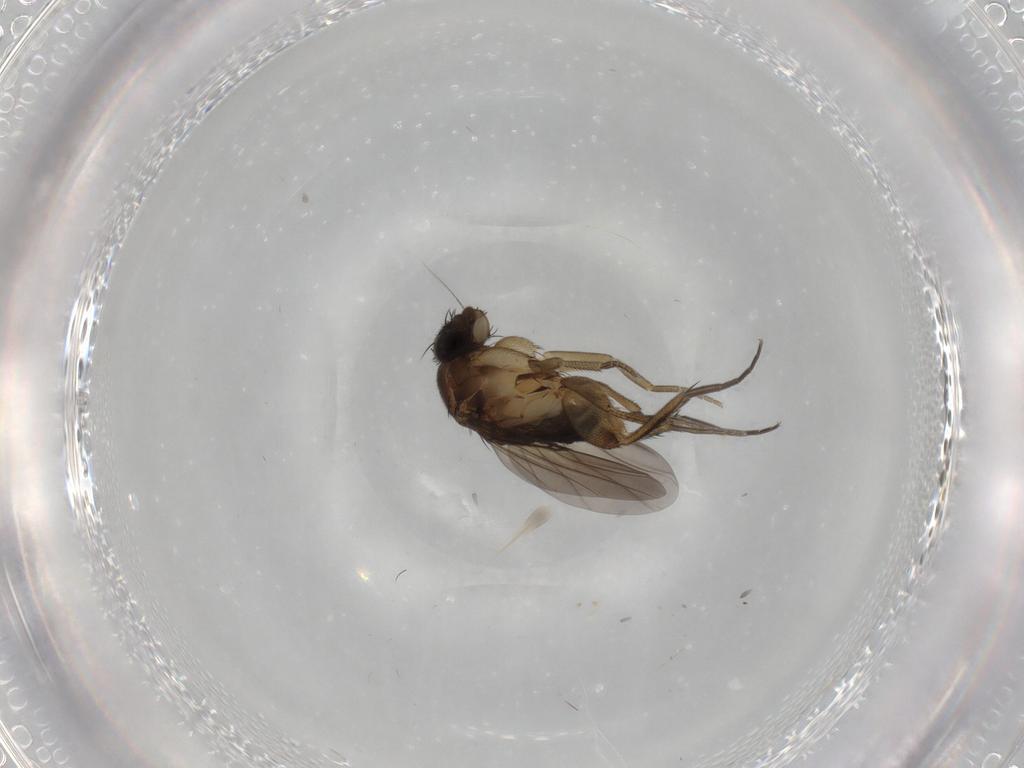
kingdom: Animalia
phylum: Arthropoda
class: Insecta
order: Diptera
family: Phoridae
